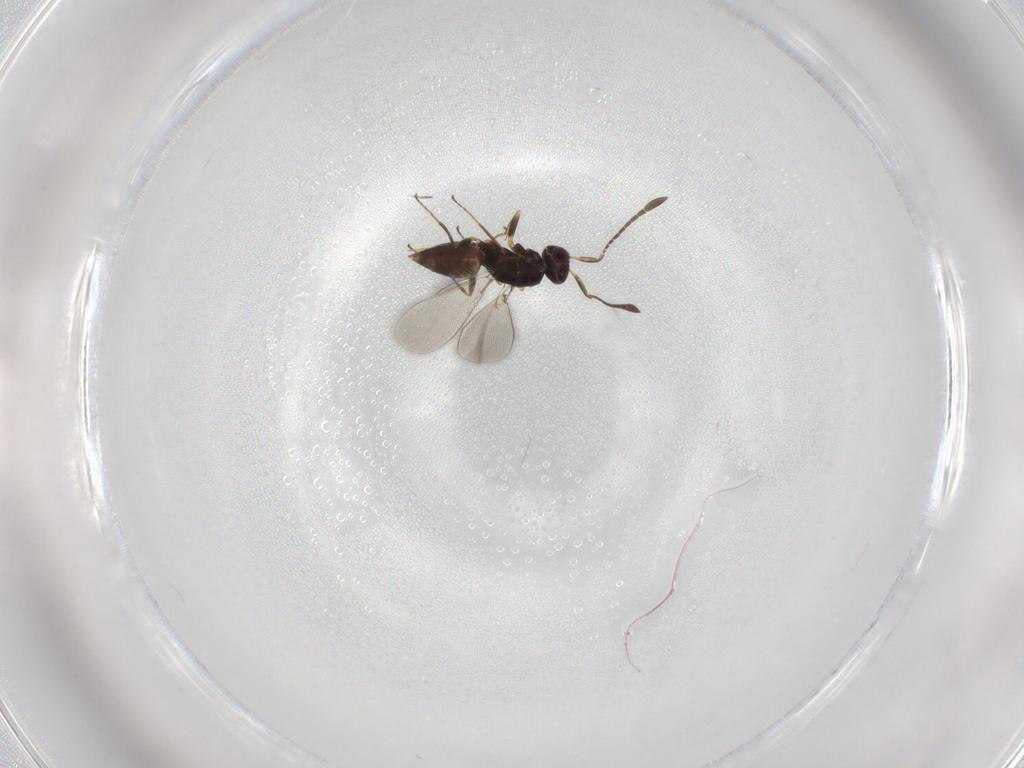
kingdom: Animalia
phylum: Arthropoda
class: Insecta
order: Hymenoptera
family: Mymaridae
